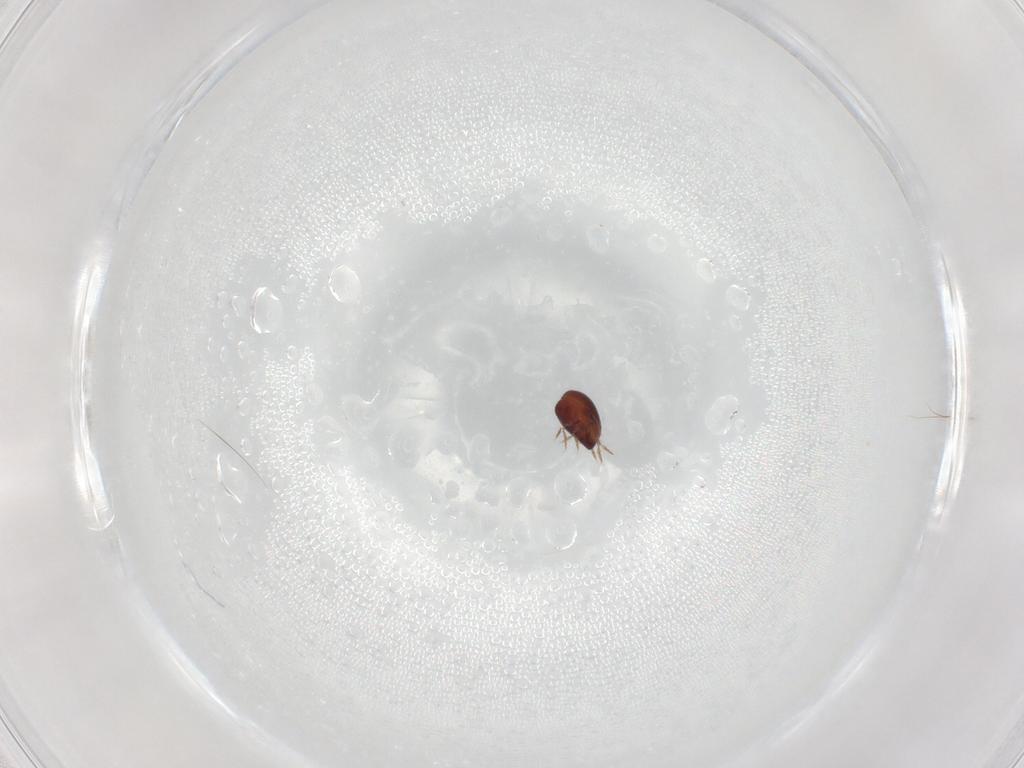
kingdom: Animalia
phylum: Arthropoda
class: Arachnida
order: Sarcoptiformes
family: Galumnidae
